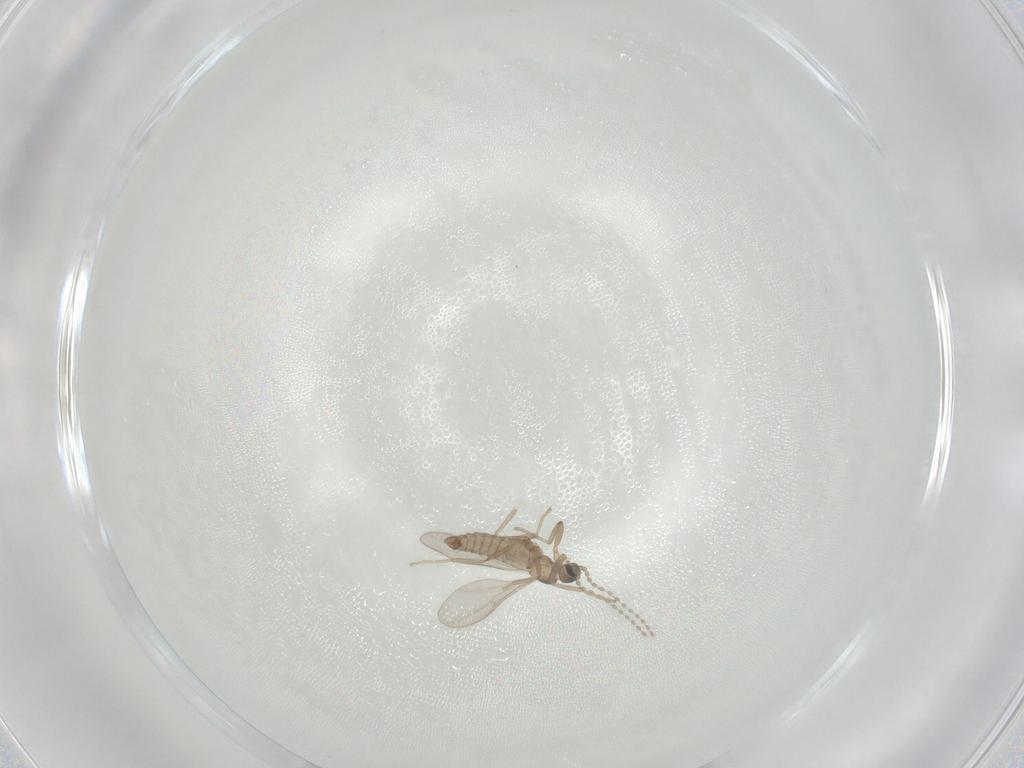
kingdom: Animalia
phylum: Arthropoda
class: Insecta
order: Diptera
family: Cecidomyiidae
